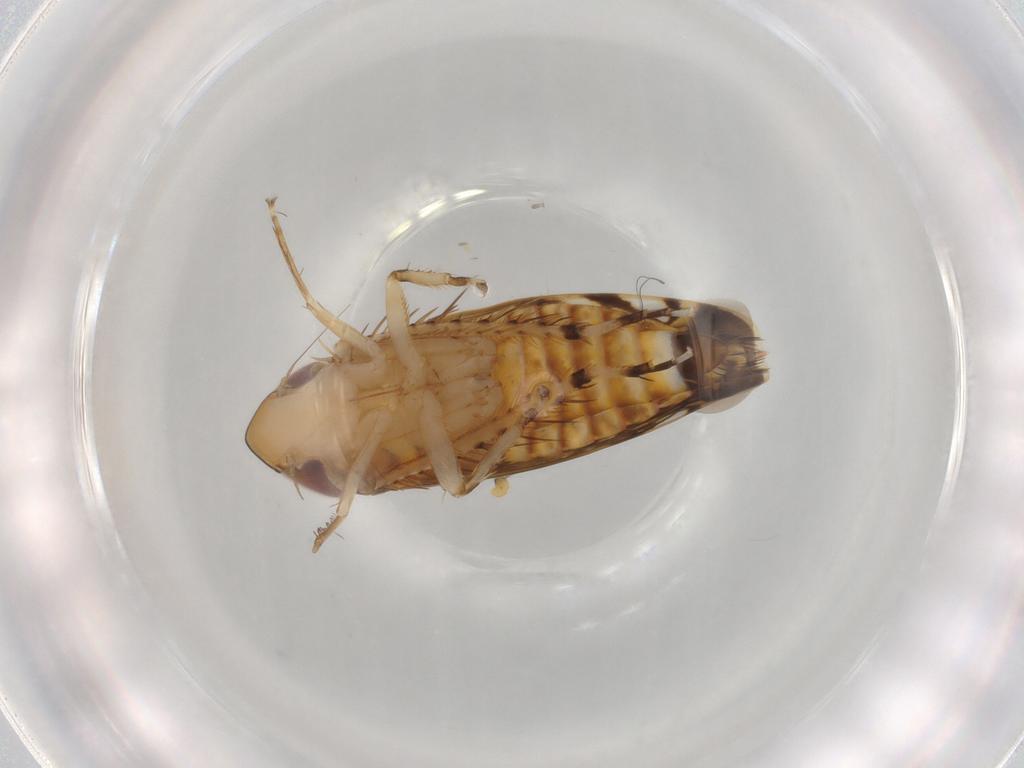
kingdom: Animalia
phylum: Arthropoda
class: Insecta
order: Hemiptera
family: Cicadellidae
